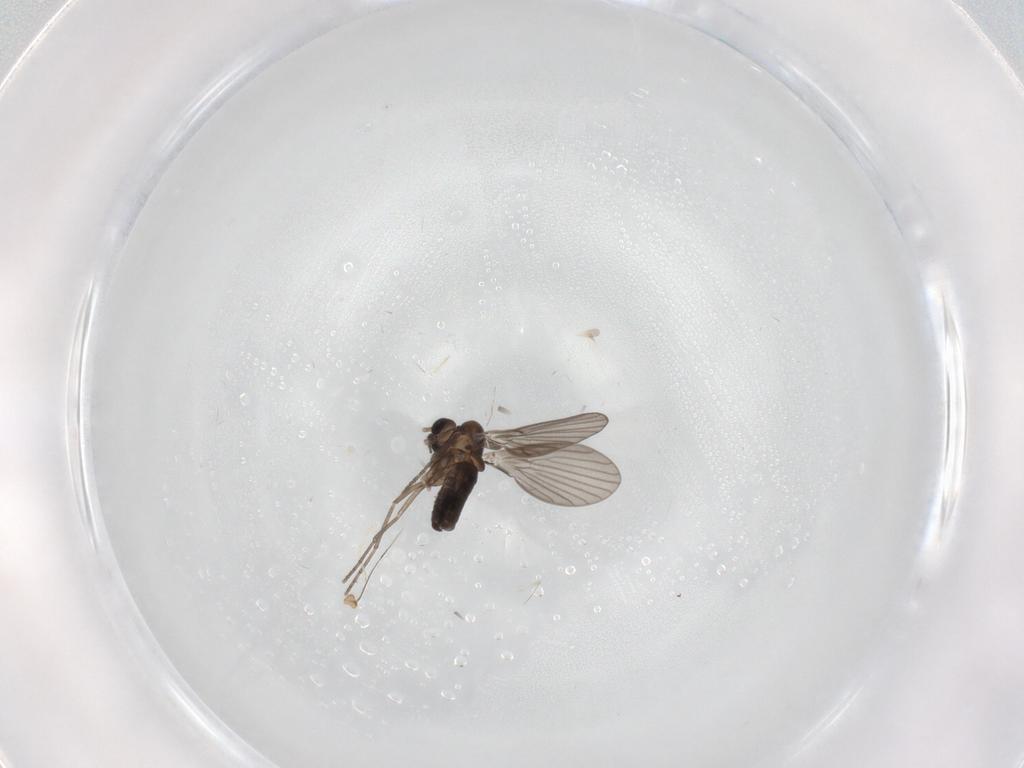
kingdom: Animalia
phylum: Arthropoda
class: Insecta
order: Diptera
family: Dolichopodidae
